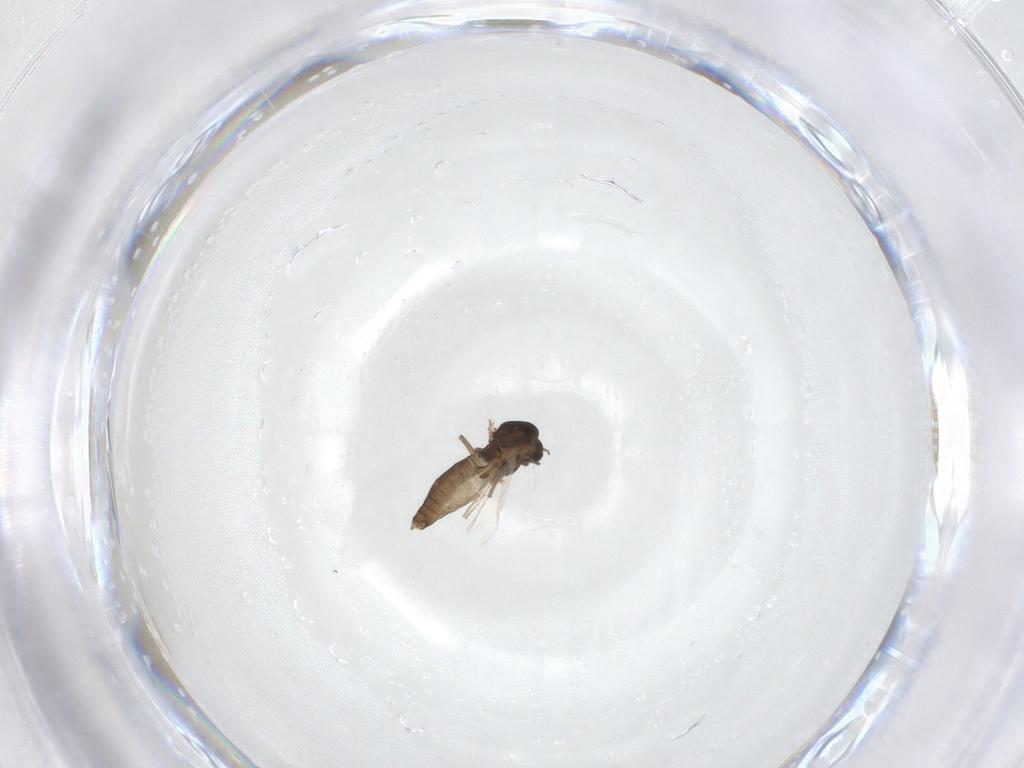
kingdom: Animalia
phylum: Arthropoda
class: Insecta
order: Diptera
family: Chironomidae
